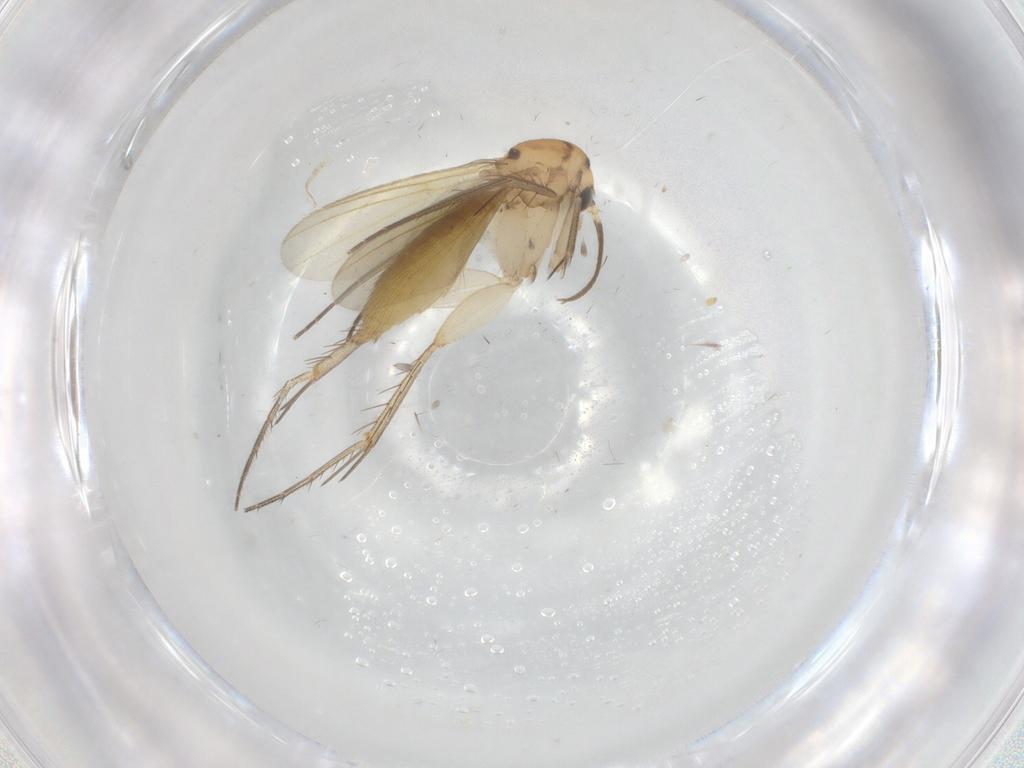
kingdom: Animalia
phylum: Arthropoda
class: Insecta
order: Diptera
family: Mycetophilidae
